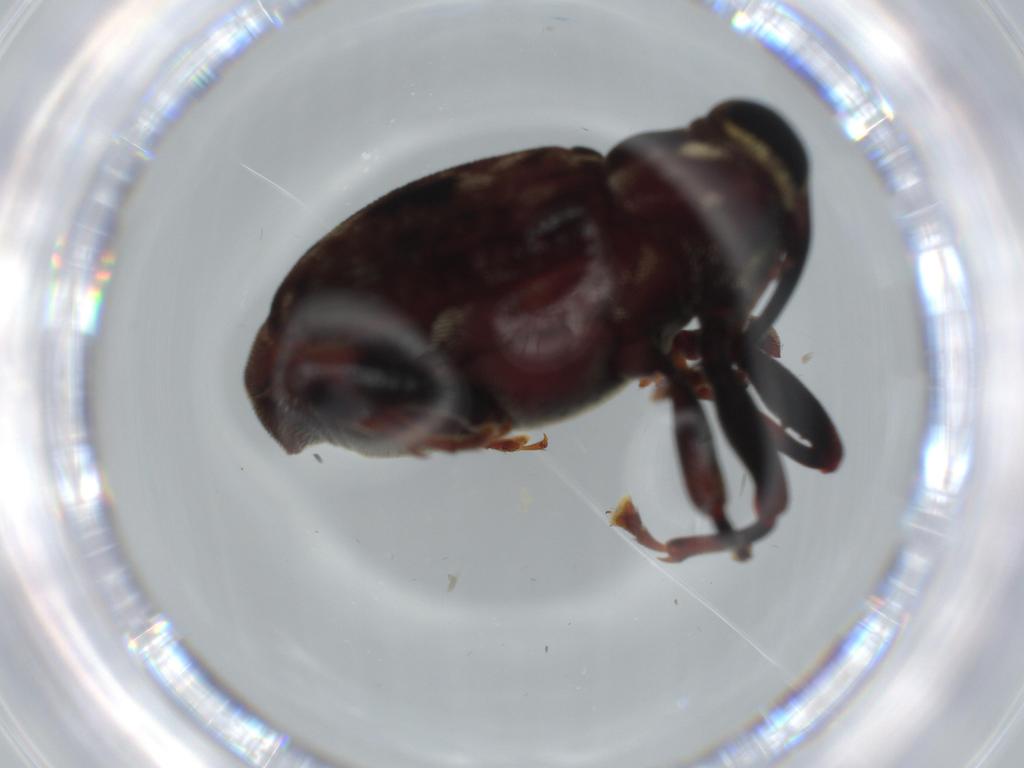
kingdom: Animalia
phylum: Arthropoda
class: Insecta
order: Coleoptera
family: Curculionidae
